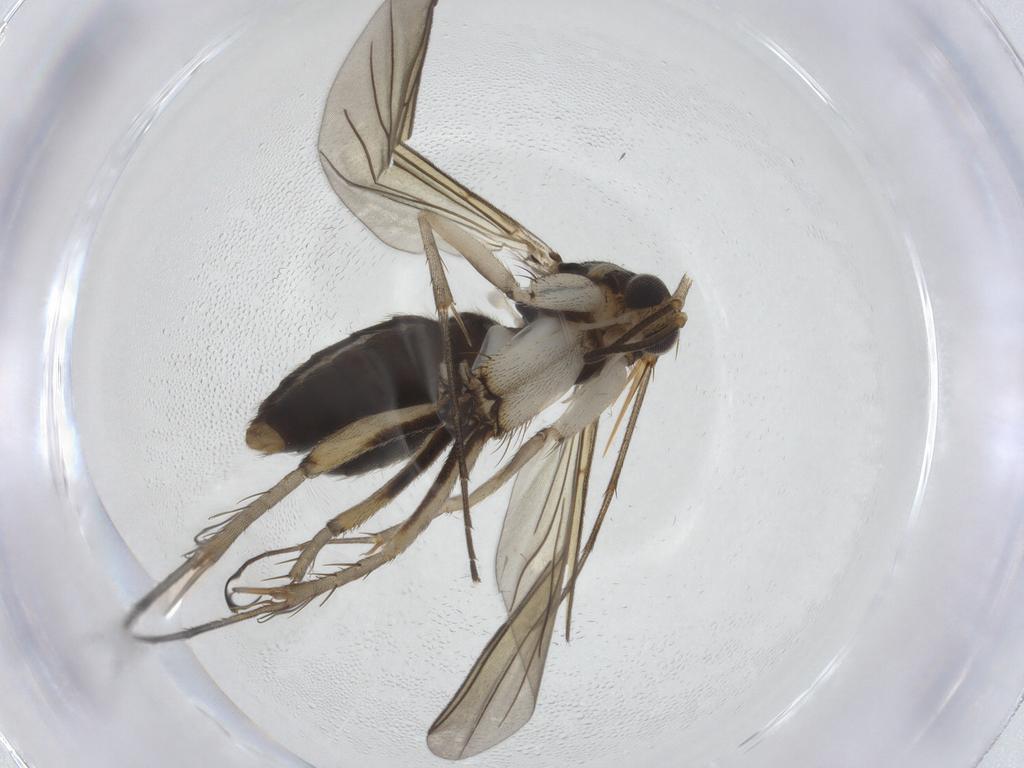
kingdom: Animalia
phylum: Arthropoda
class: Insecta
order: Diptera
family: Mycetophilidae
